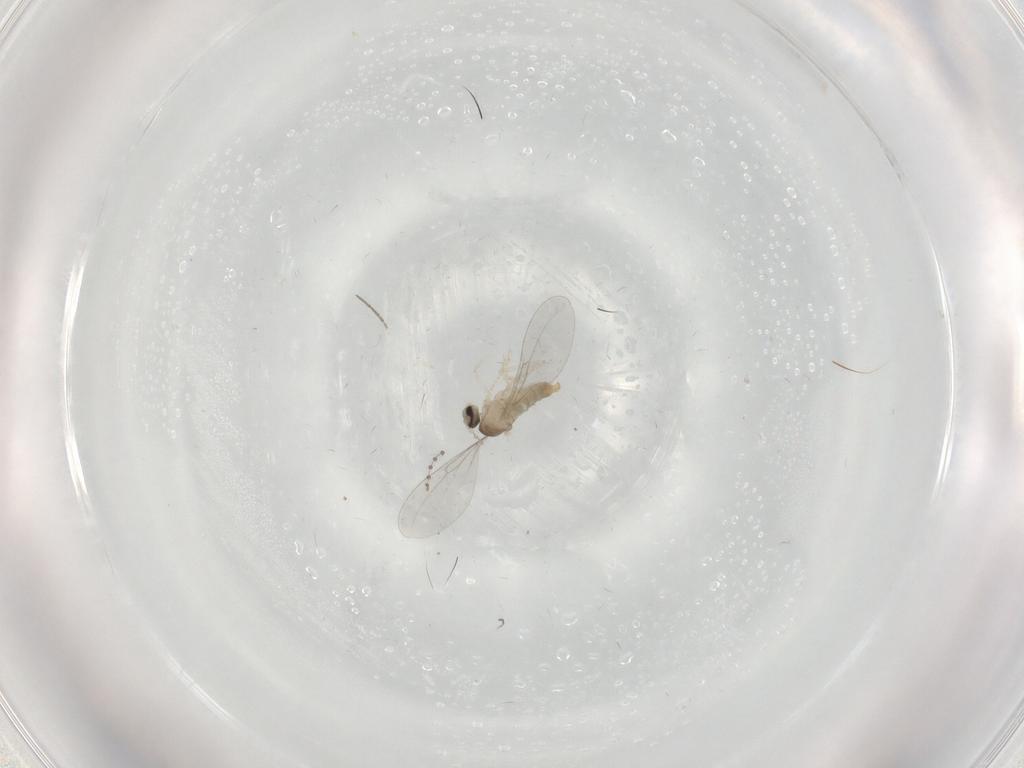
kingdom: Animalia
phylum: Arthropoda
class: Insecta
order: Diptera
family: Cecidomyiidae
